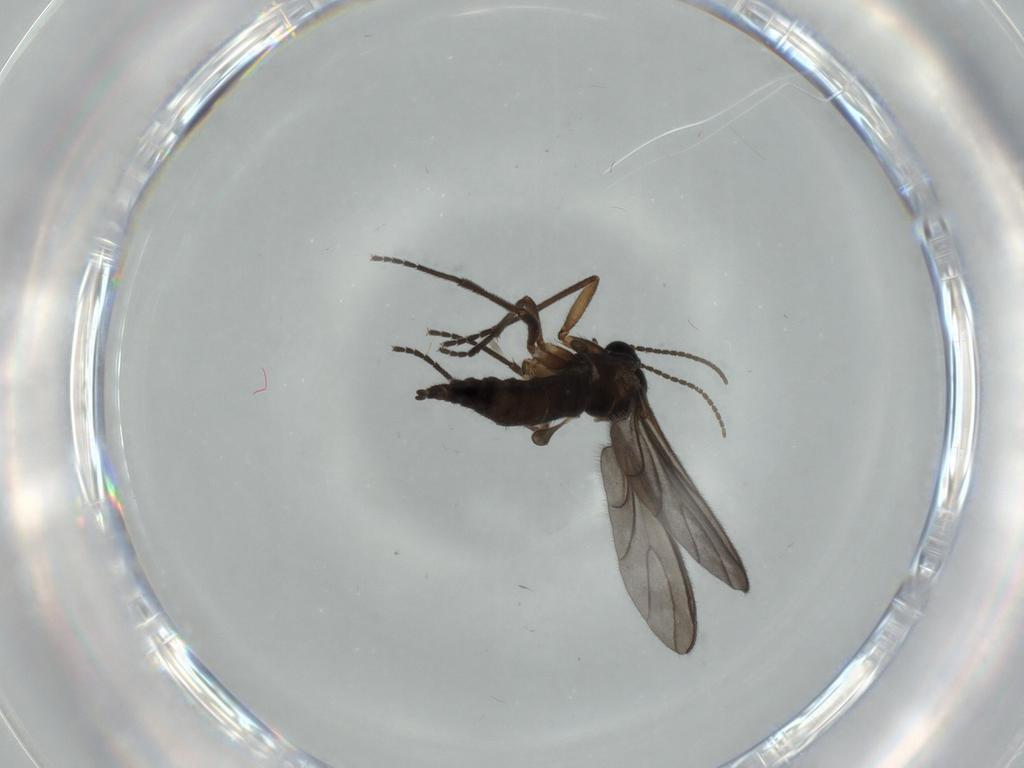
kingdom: Animalia
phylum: Arthropoda
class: Insecta
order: Diptera
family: Sciaridae
